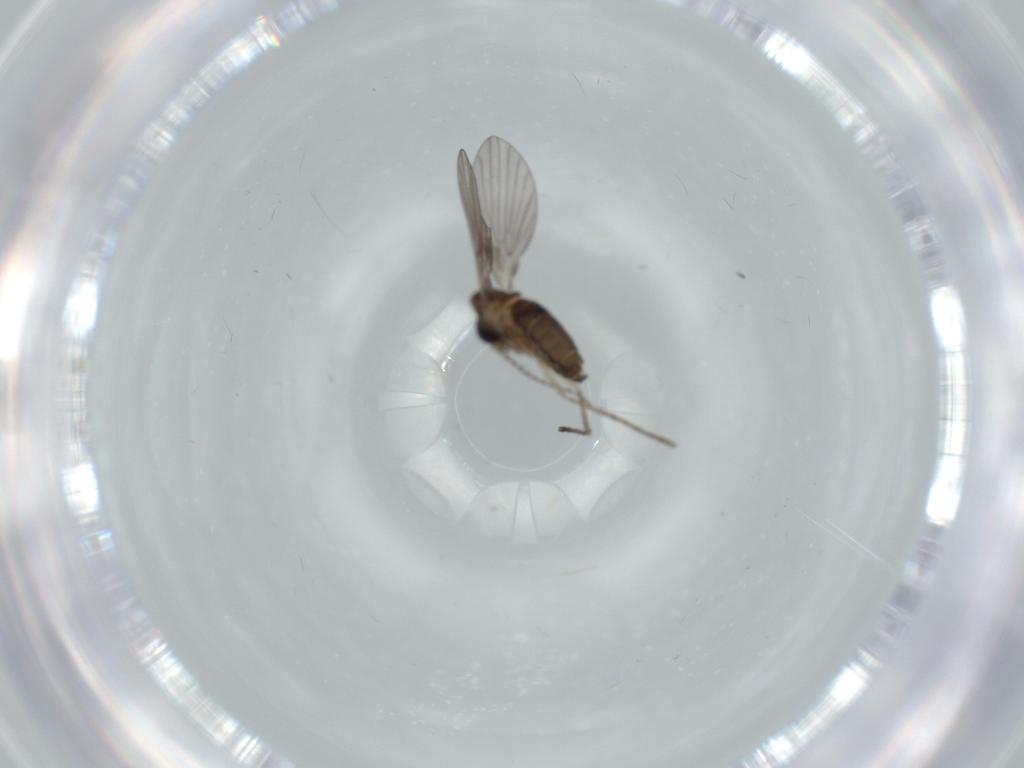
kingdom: Animalia
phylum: Arthropoda
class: Insecta
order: Diptera
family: Psychodidae
